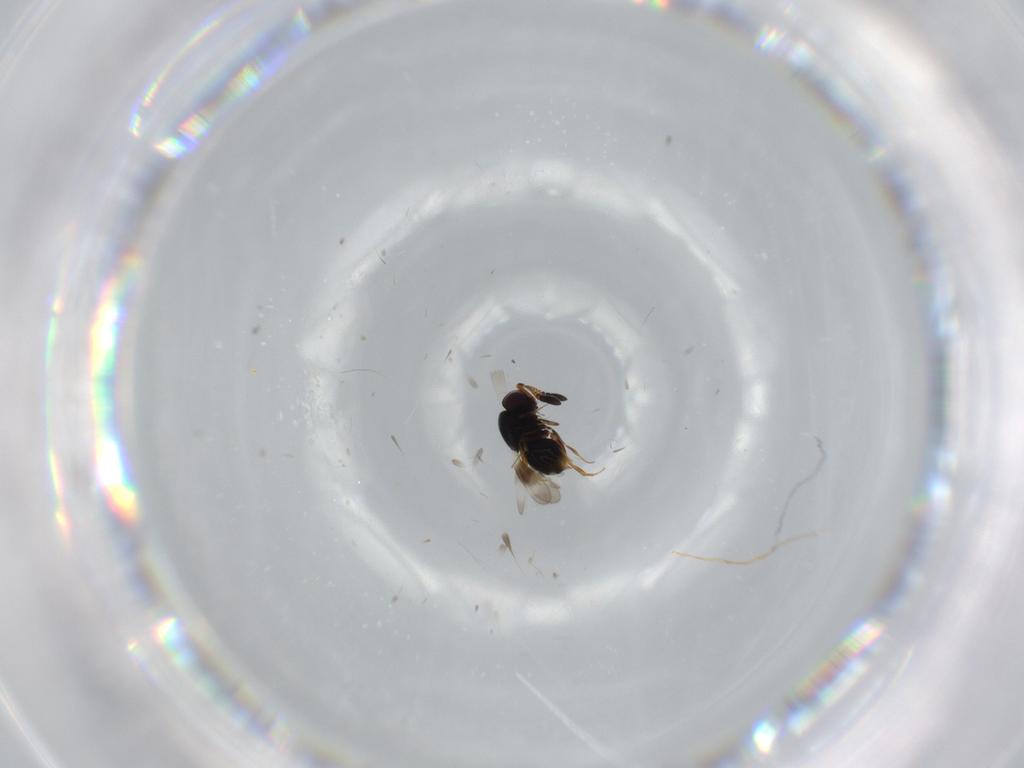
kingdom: Animalia
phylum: Arthropoda
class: Insecta
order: Hymenoptera
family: Ceraphronidae
